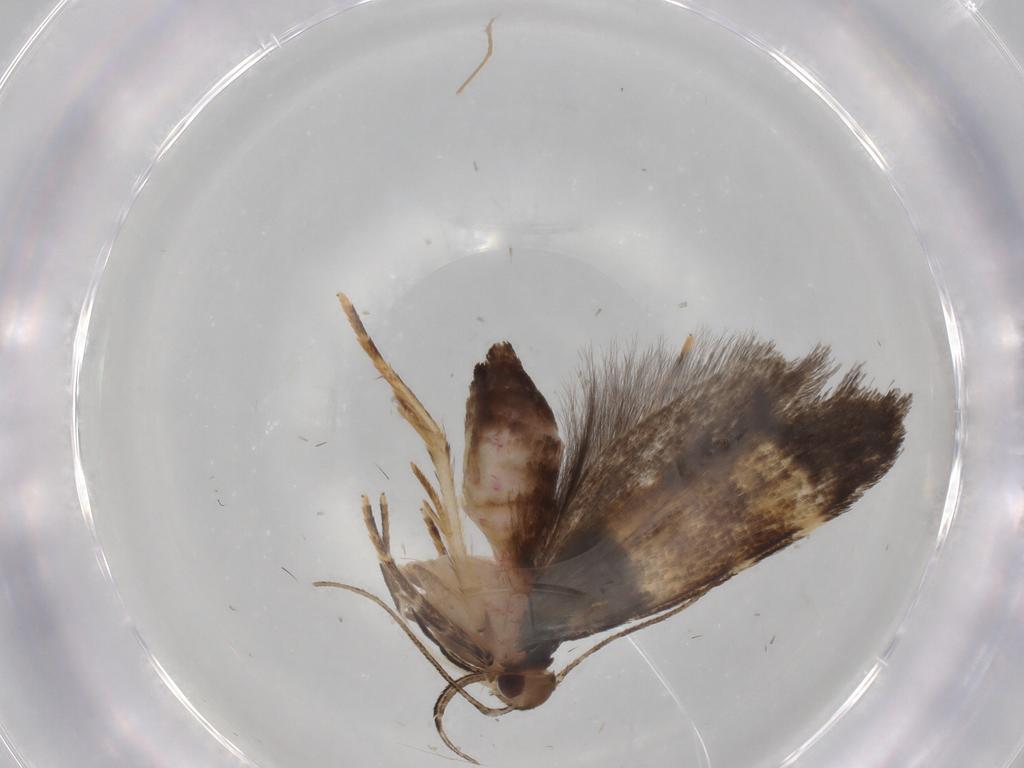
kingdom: Animalia
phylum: Arthropoda
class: Insecta
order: Lepidoptera
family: Cosmopterigidae
